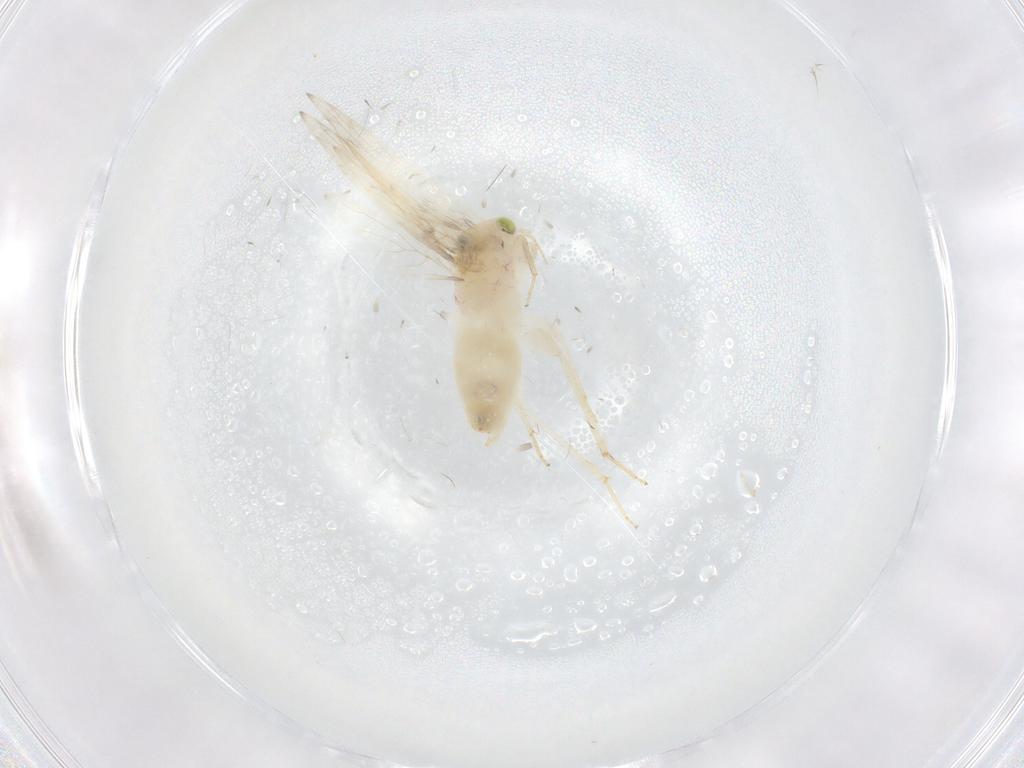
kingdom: Animalia
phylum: Arthropoda
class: Insecta
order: Psocodea
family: Lepidopsocidae
